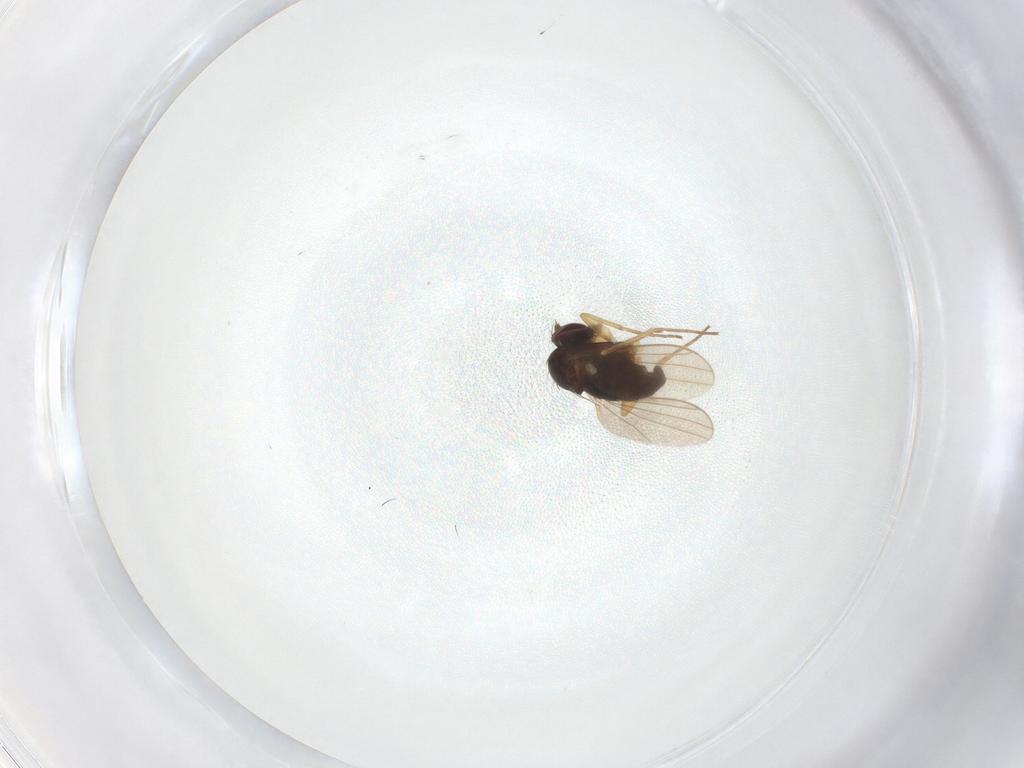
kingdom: Animalia
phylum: Arthropoda
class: Insecta
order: Diptera
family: Dolichopodidae
